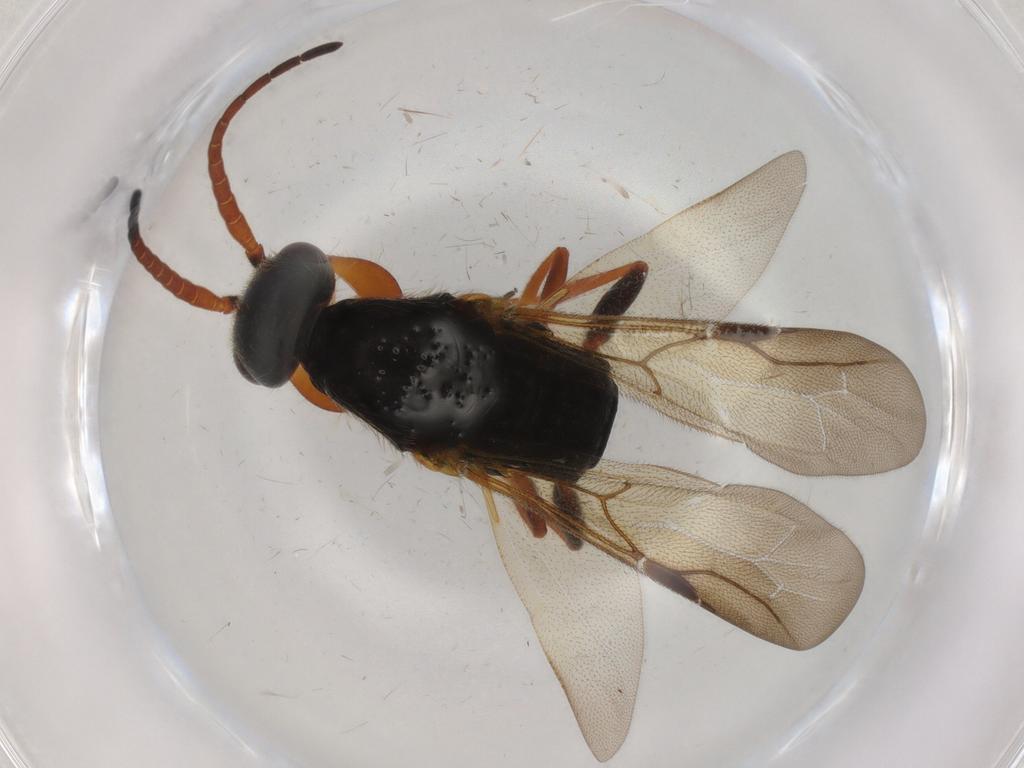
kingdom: Animalia
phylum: Arthropoda
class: Insecta
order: Hymenoptera
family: Bethylidae
